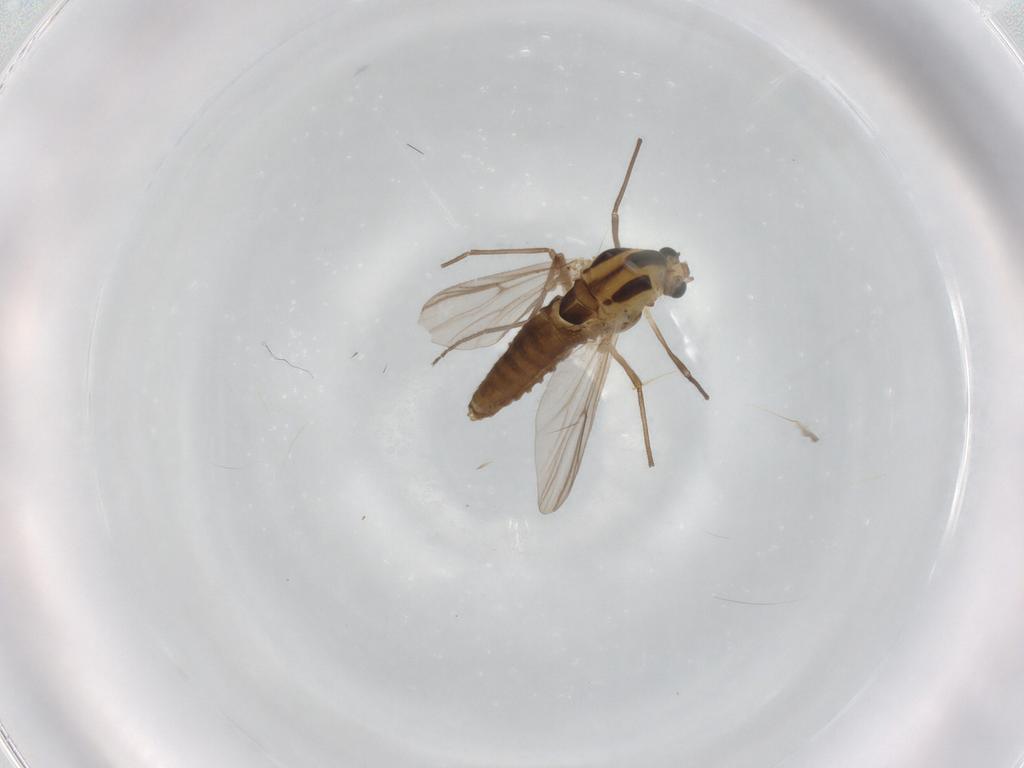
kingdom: Animalia
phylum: Arthropoda
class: Insecta
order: Diptera
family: Chironomidae
